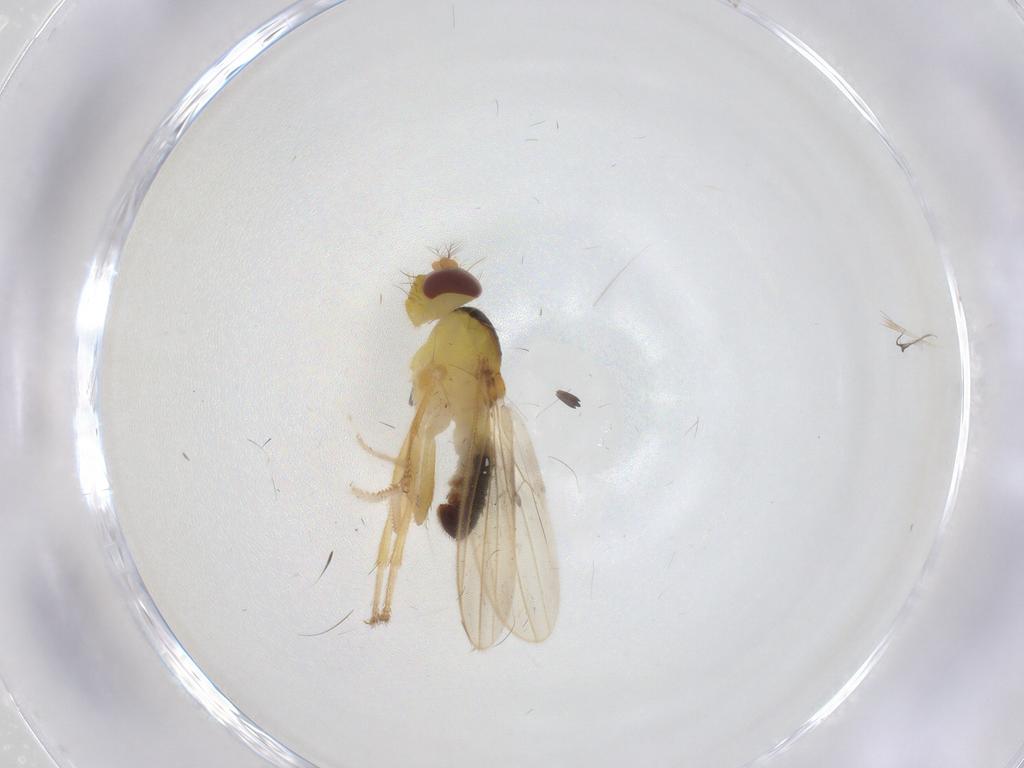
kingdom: Animalia
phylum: Arthropoda
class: Insecta
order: Diptera
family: Periscelididae
